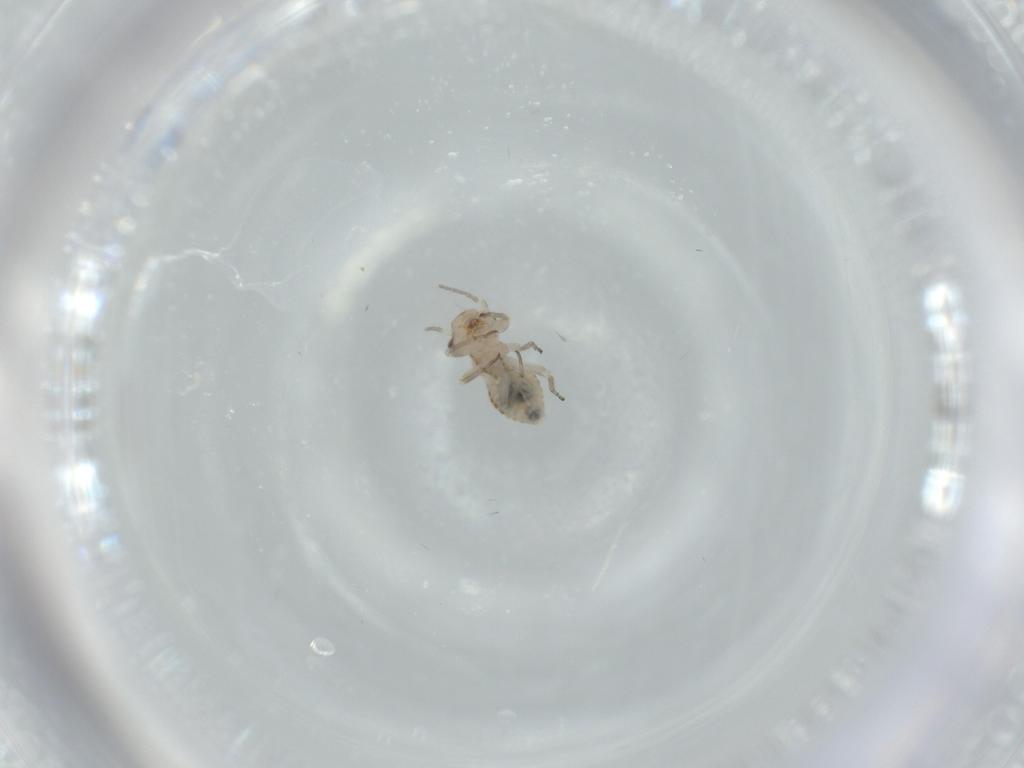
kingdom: Animalia
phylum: Arthropoda
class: Insecta
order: Psocodea
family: Psocidae
